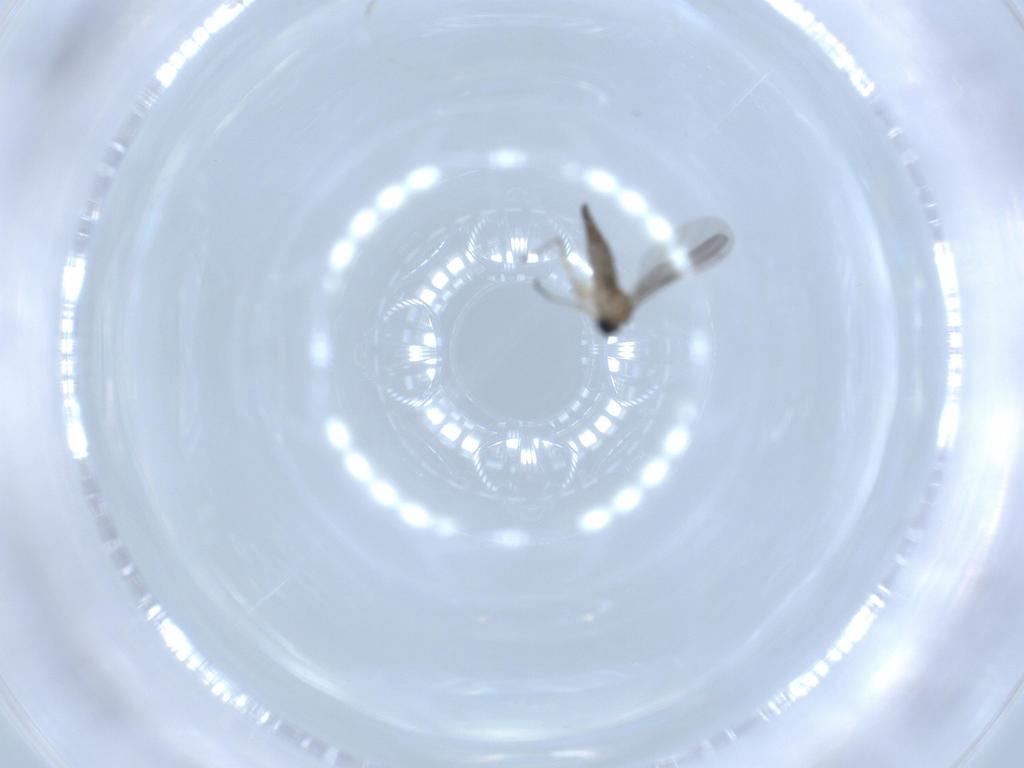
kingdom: Animalia
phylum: Arthropoda
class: Insecta
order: Diptera
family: Sciaridae
